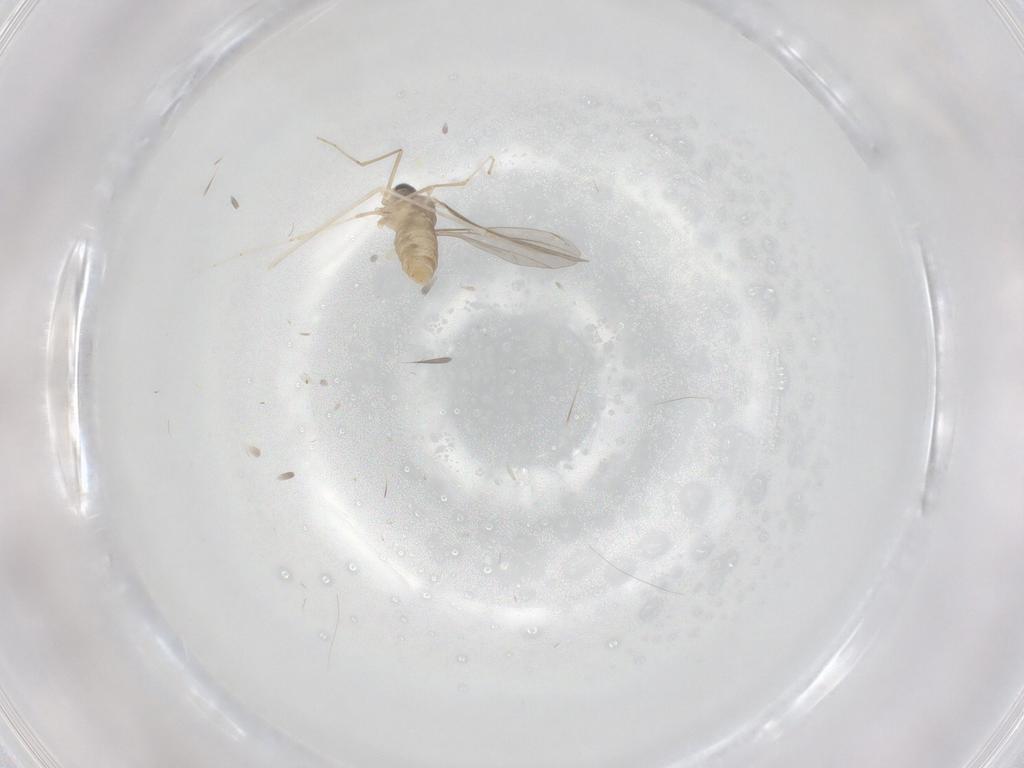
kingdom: Animalia
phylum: Arthropoda
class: Insecta
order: Diptera
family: Cecidomyiidae
